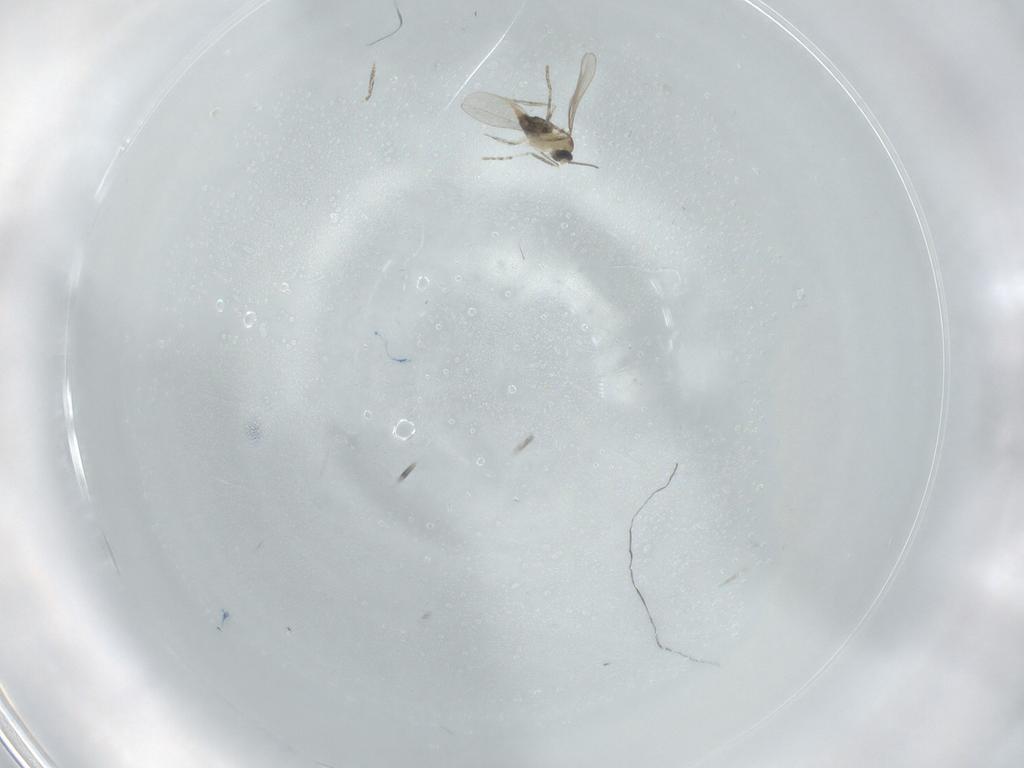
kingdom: Animalia
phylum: Arthropoda
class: Insecta
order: Diptera
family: Cecidomyiidae
